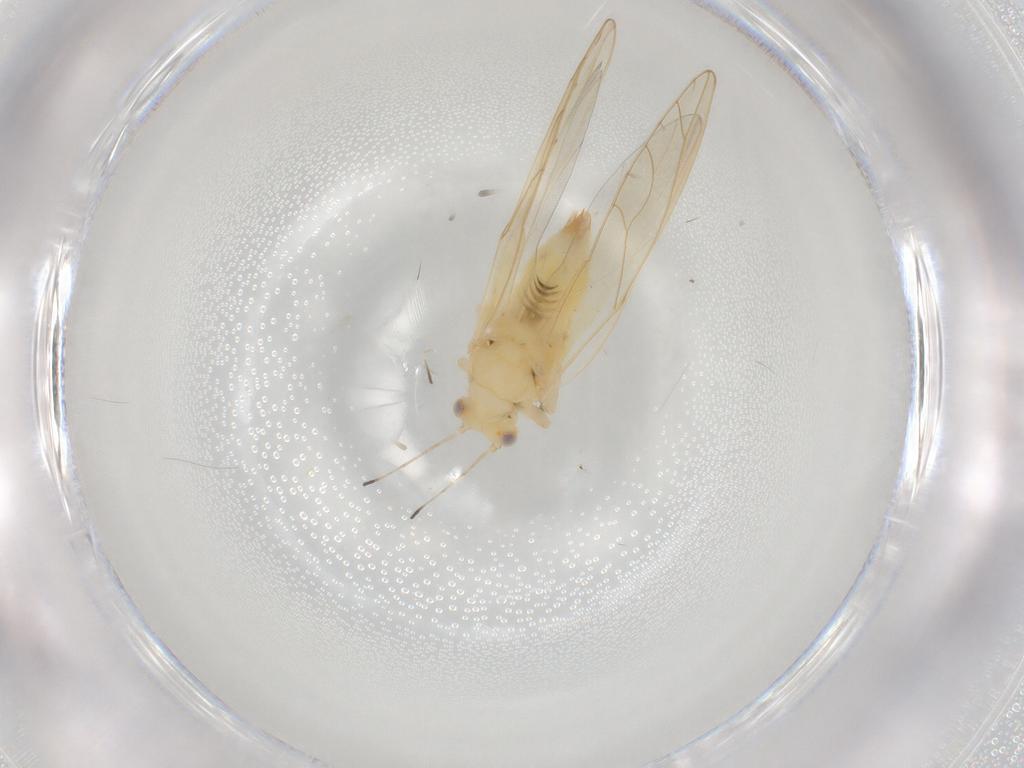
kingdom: Animalia
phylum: Arthropoda
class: Insecta
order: Hemiptera
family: Triozidae
